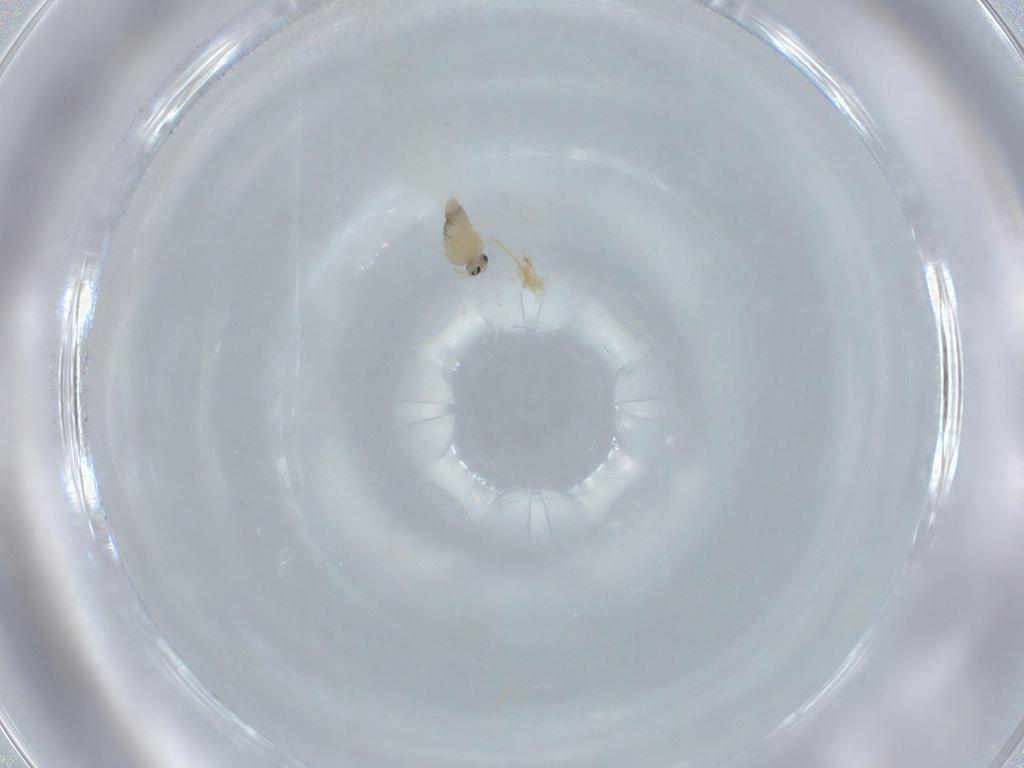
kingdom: Animalia
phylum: Arthropoda
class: Insecta
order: Diptera
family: Cecidomyiidae
